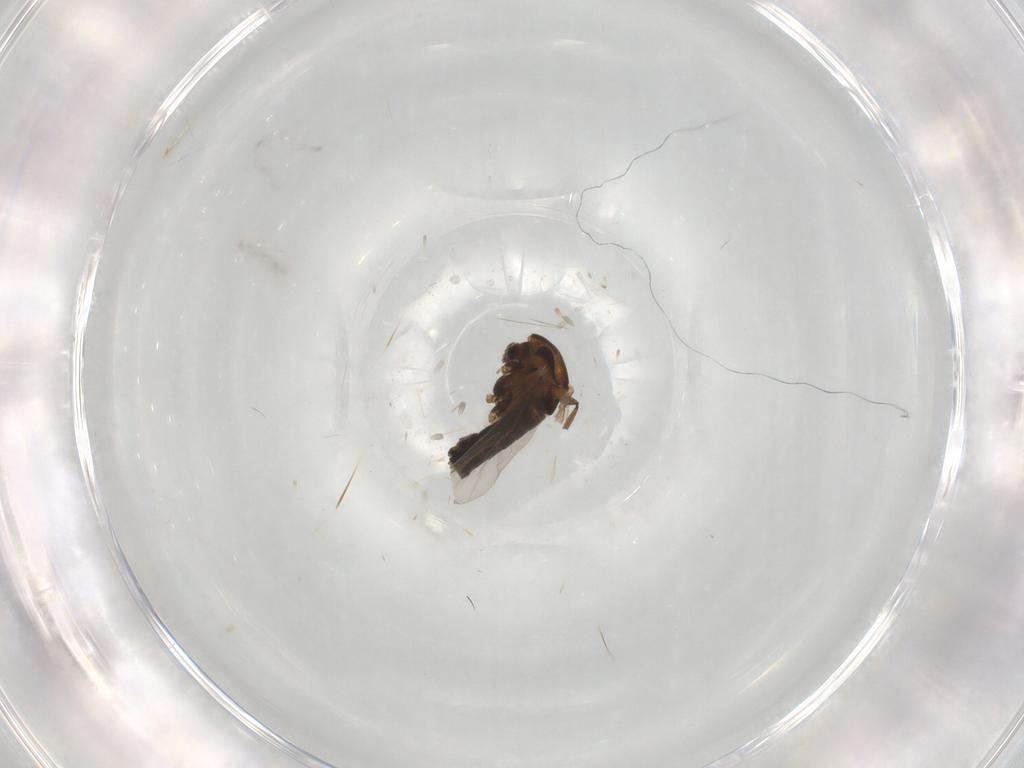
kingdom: Animalia
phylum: Arthropoda
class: Insecta
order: Diptera
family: Chironomidae
